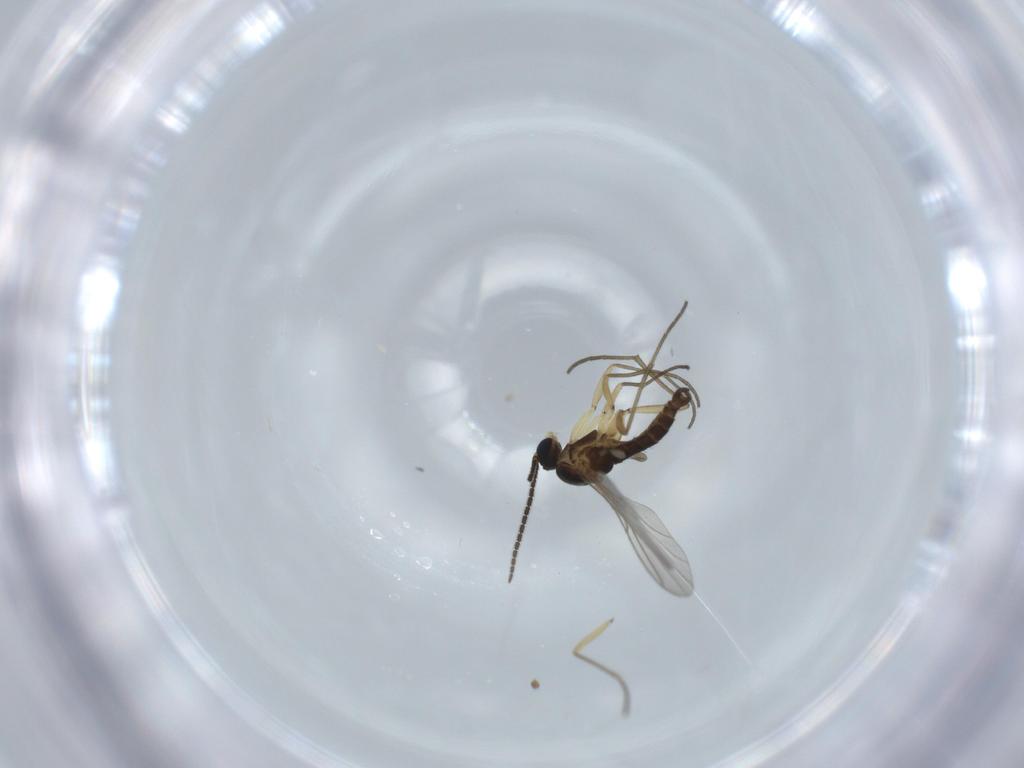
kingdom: Animalia
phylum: Arthropoda
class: Insecta
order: Diptera
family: Sphaeroceridae
